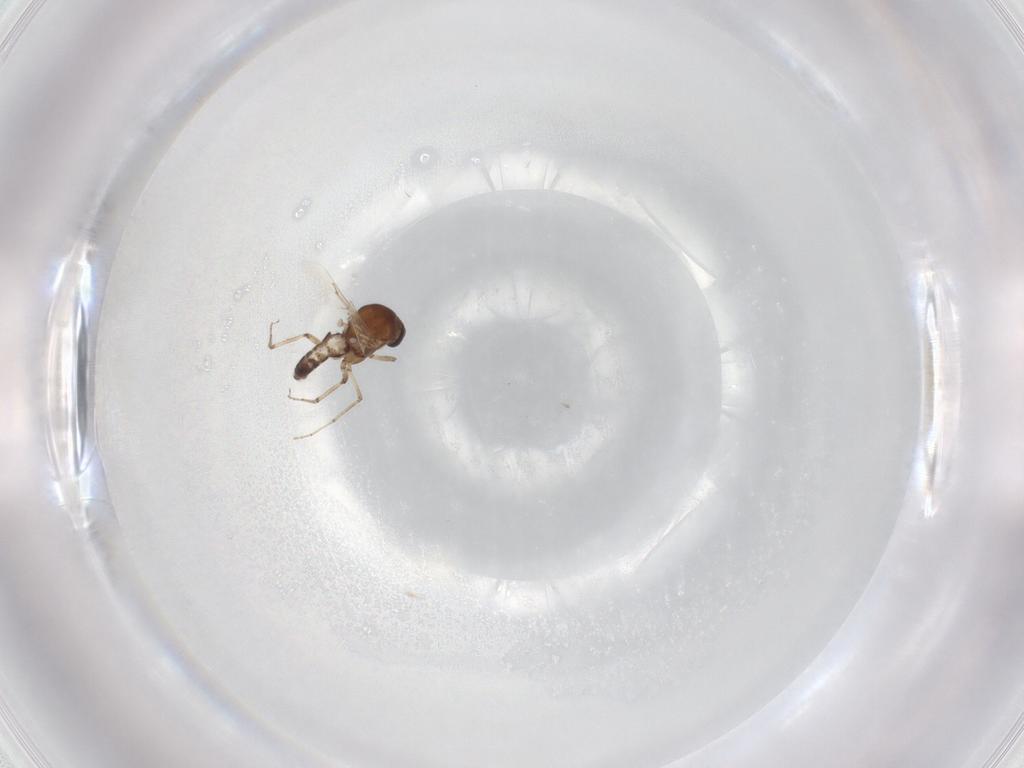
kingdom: Animalia
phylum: Arthropoda
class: Insecta
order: Diptera
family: Ceratopogonidae
